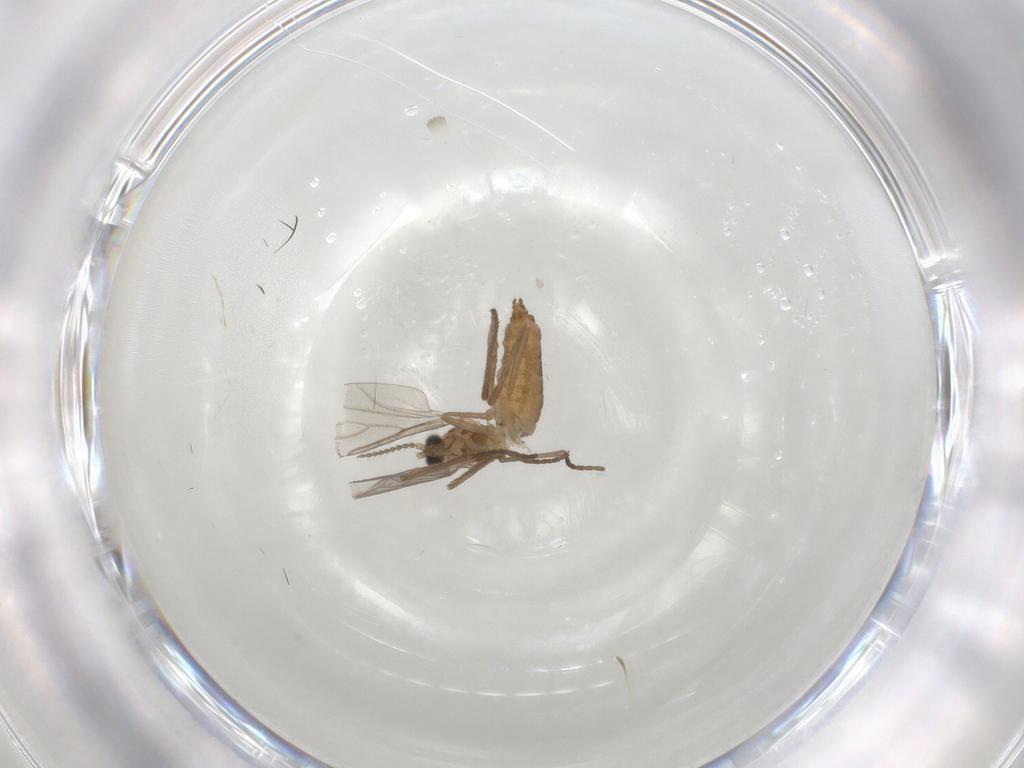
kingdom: Animalia
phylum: Arthropoda
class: Insecta
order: Diptera
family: Cecidomyiidae
